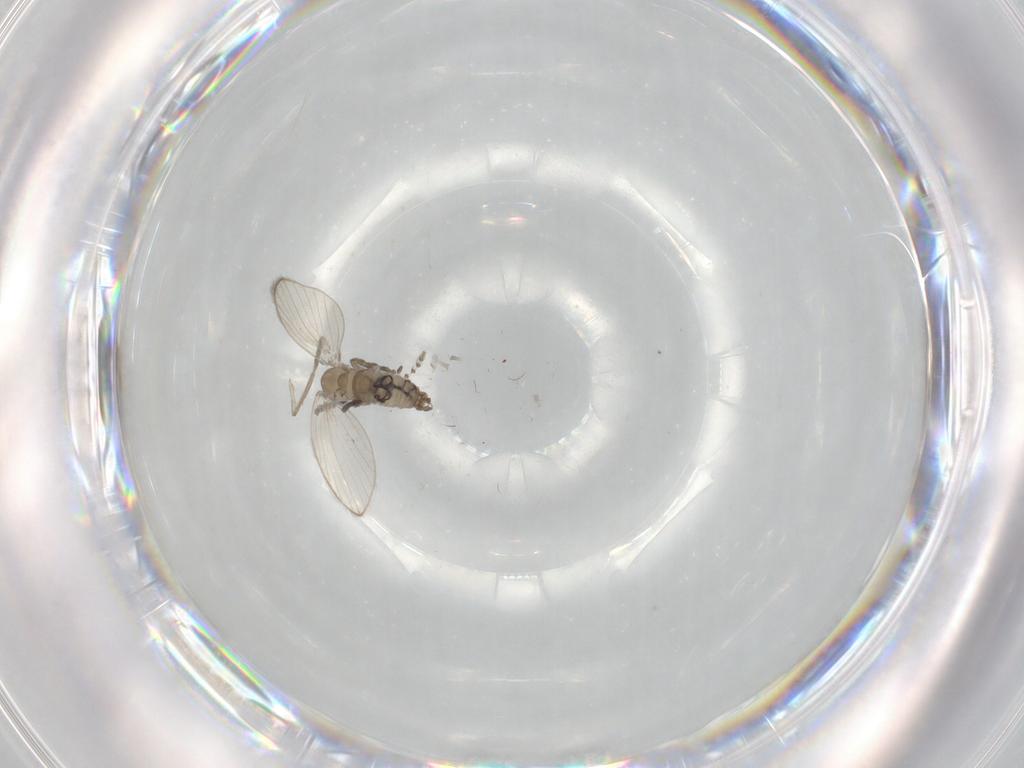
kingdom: Animalia
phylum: Arthropoda
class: Insecta
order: Diptera
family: Psychodidae
